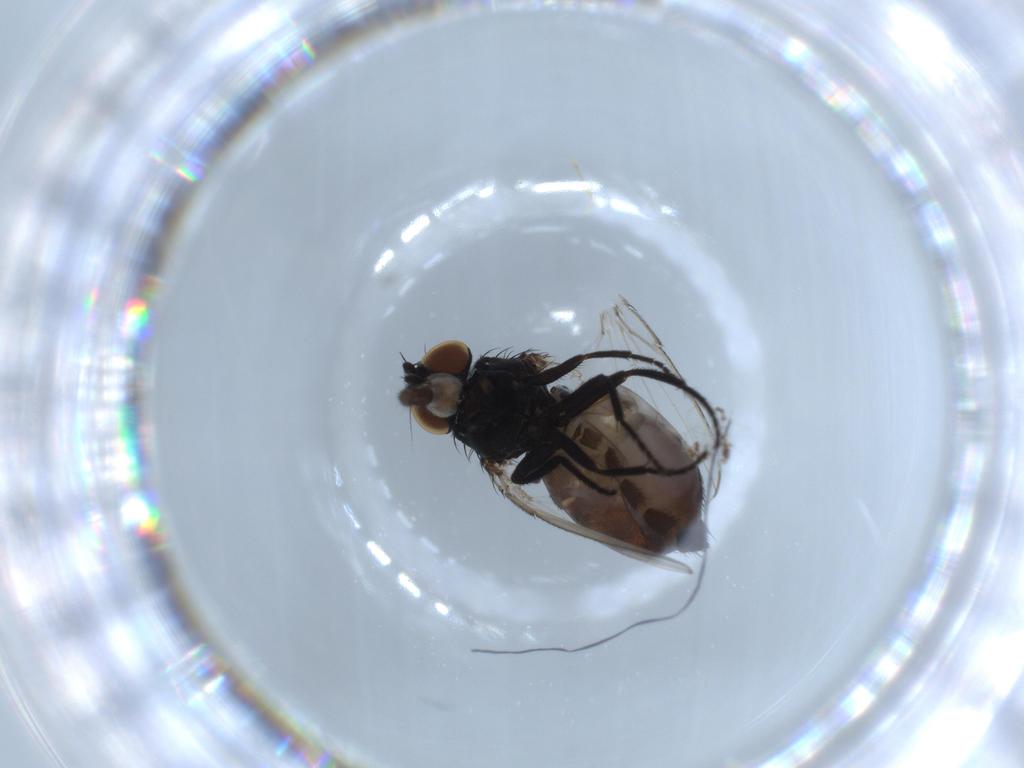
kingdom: Animalia
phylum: Arthropoda
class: Insecta
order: Diptera
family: Milichiidae
